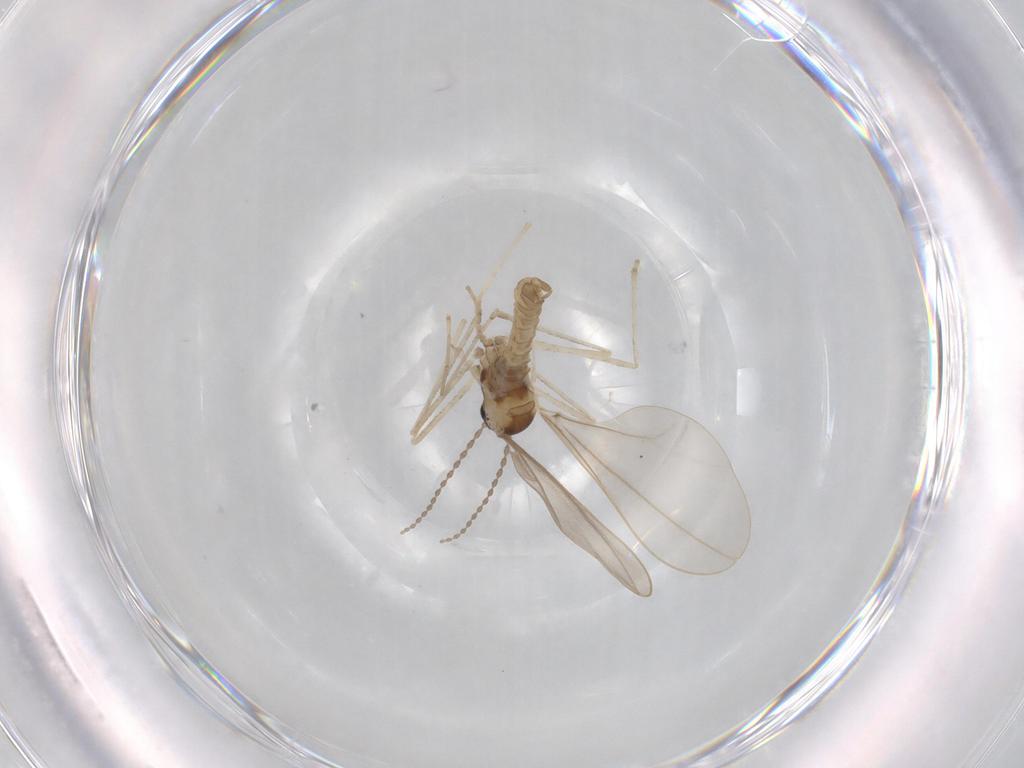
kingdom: Animalia
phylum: Arthropoda
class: Insecta
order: Diptera
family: Cecidomyiidae
